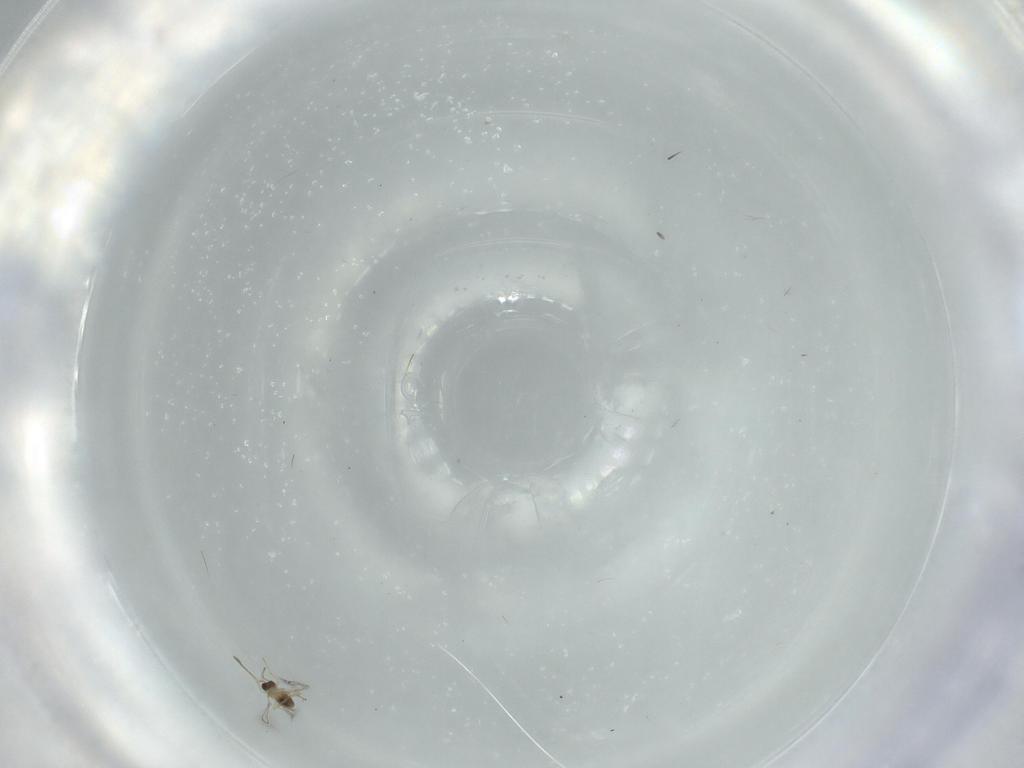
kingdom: Animalia
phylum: Arthropoda
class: Insecta
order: Hymenoptera
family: Mymaridae
